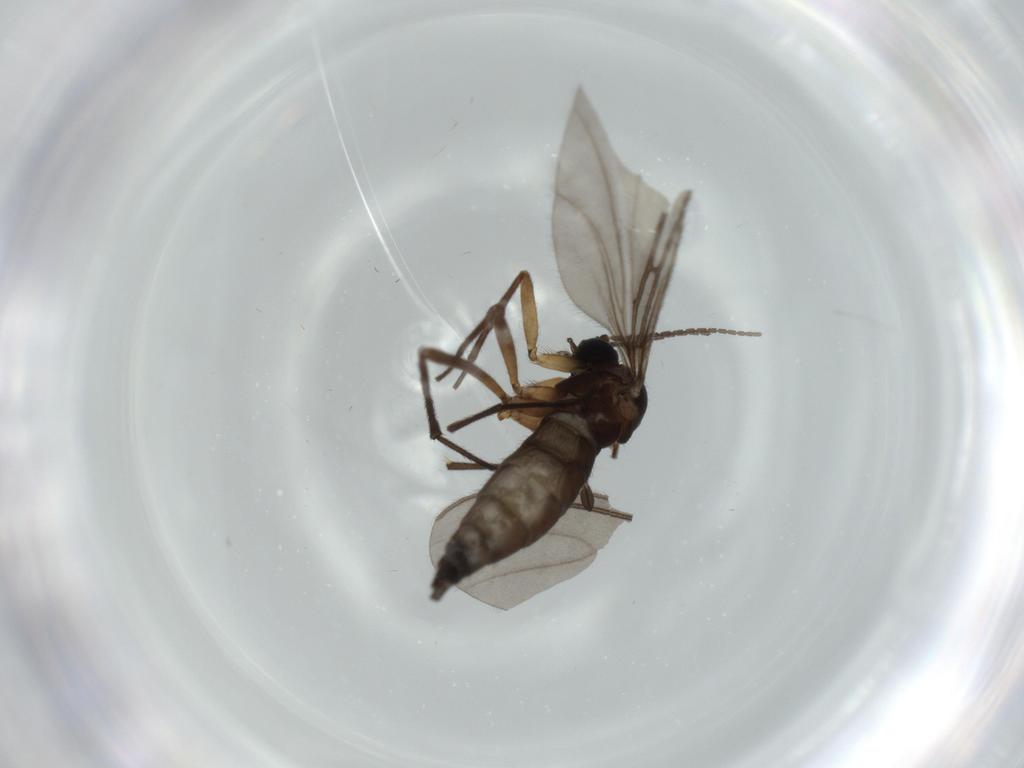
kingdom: Animalia
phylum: Arthropoda
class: Insecta
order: Diptera
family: Sciaridae
